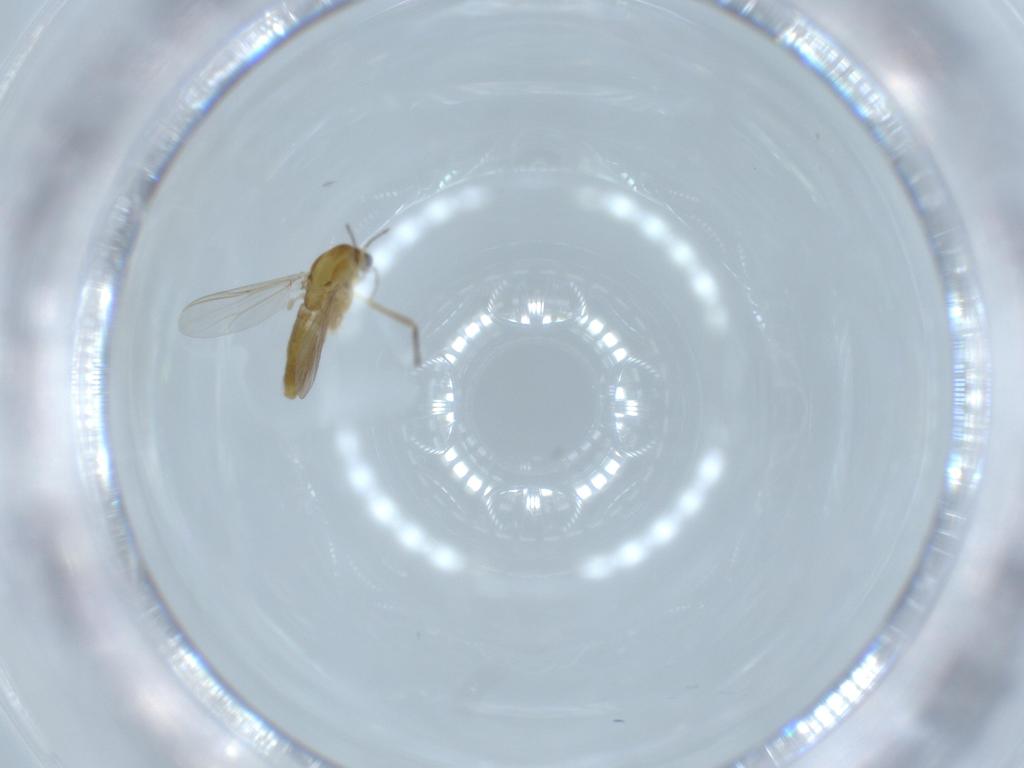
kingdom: Animalia
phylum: Arthropoda
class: Insecta
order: Diptera
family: Chironomidae
